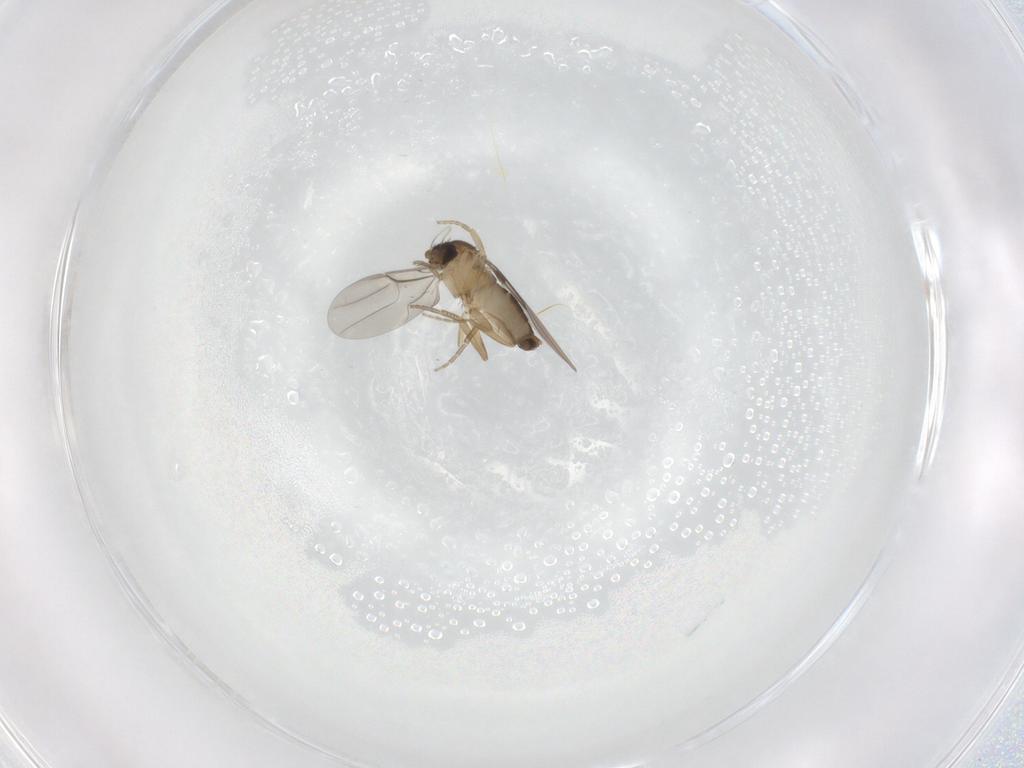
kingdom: Animalia
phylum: Arthropoda
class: Insecta
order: Diptera
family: Phoridae
